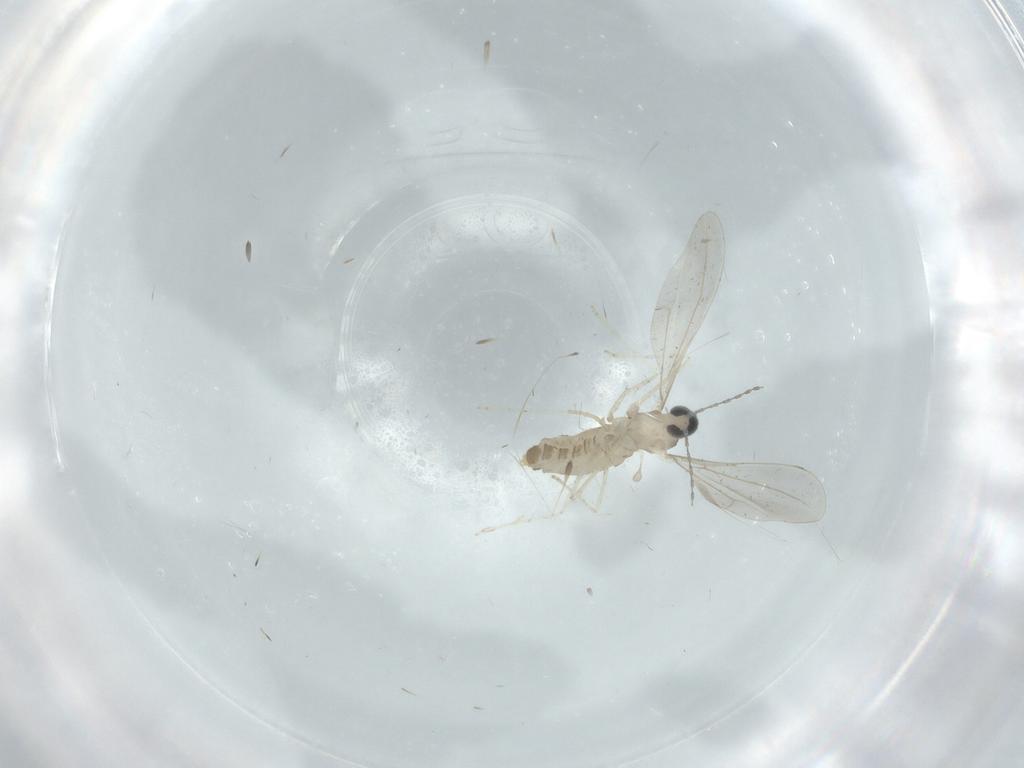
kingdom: Animalia
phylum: Arthropoda
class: Insecta
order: Diptera
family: Cecidomyiidae
